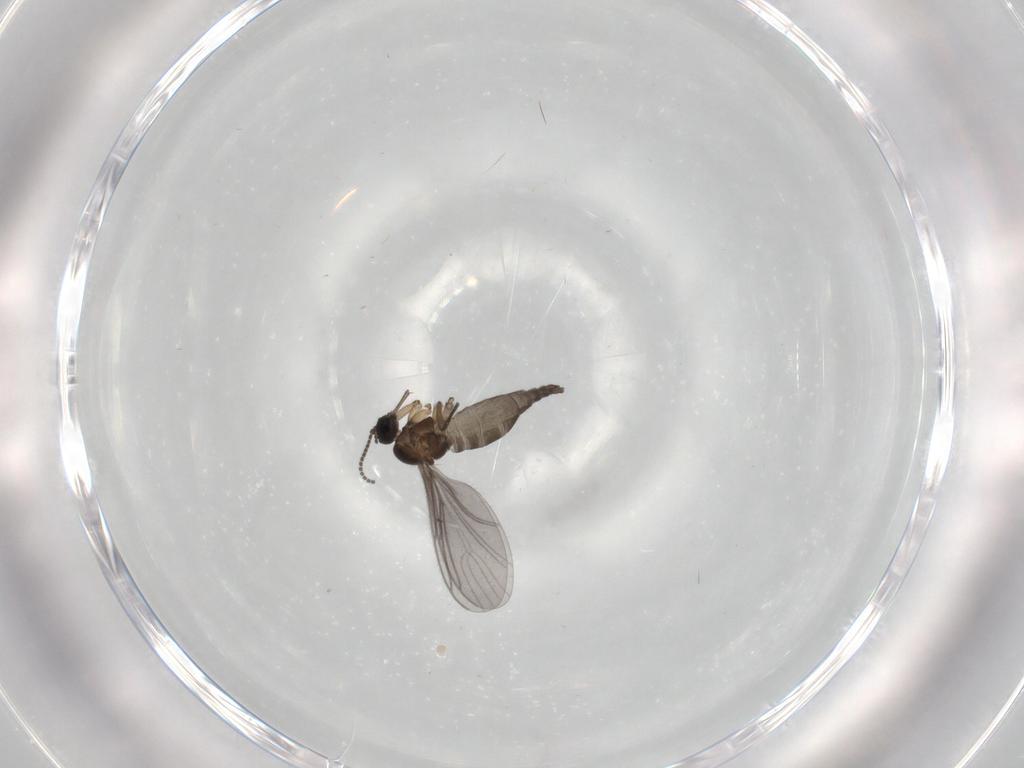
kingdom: Animalia
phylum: Arthropoda
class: Insecta
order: Diptera
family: Sciaridae
